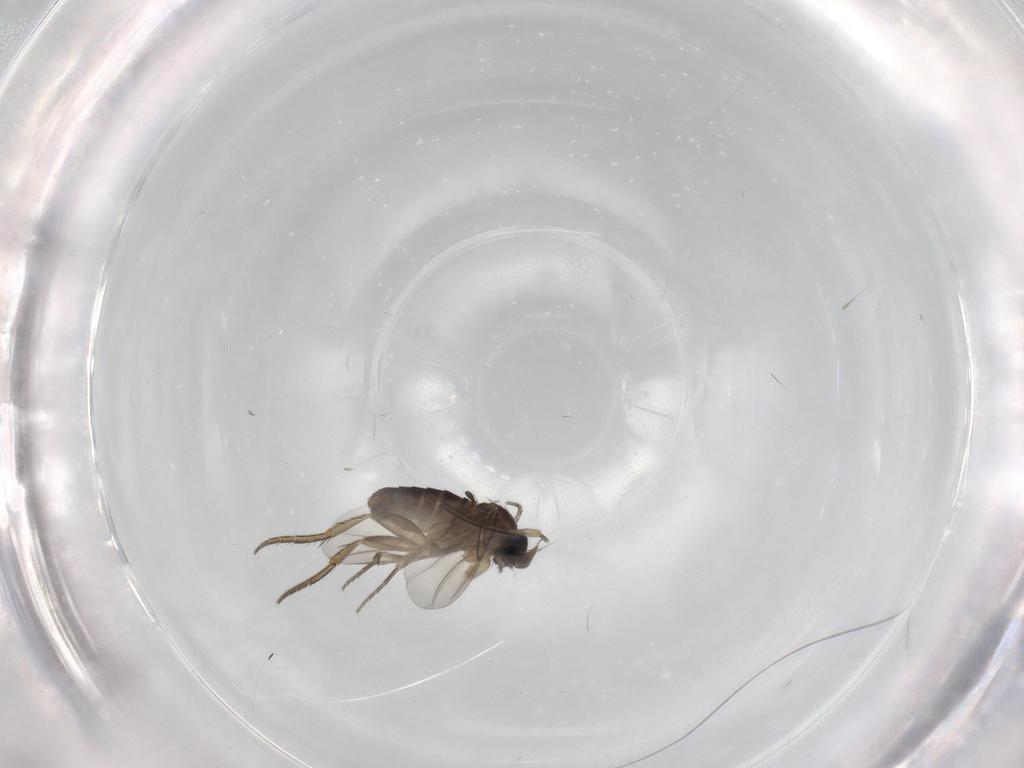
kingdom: Animalia
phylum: Arthropoda
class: Insecta
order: Diptera
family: Phoridae
